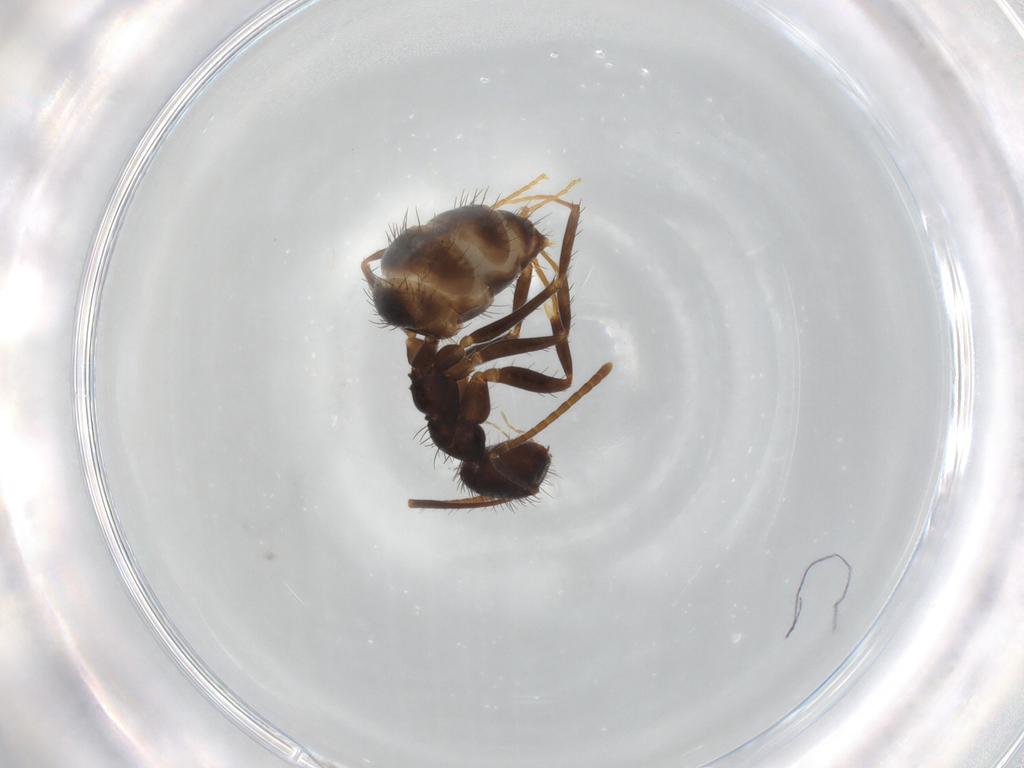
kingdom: Animalia
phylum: Arthropoda
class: Insecta
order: Hymenoptera
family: Formicidae
